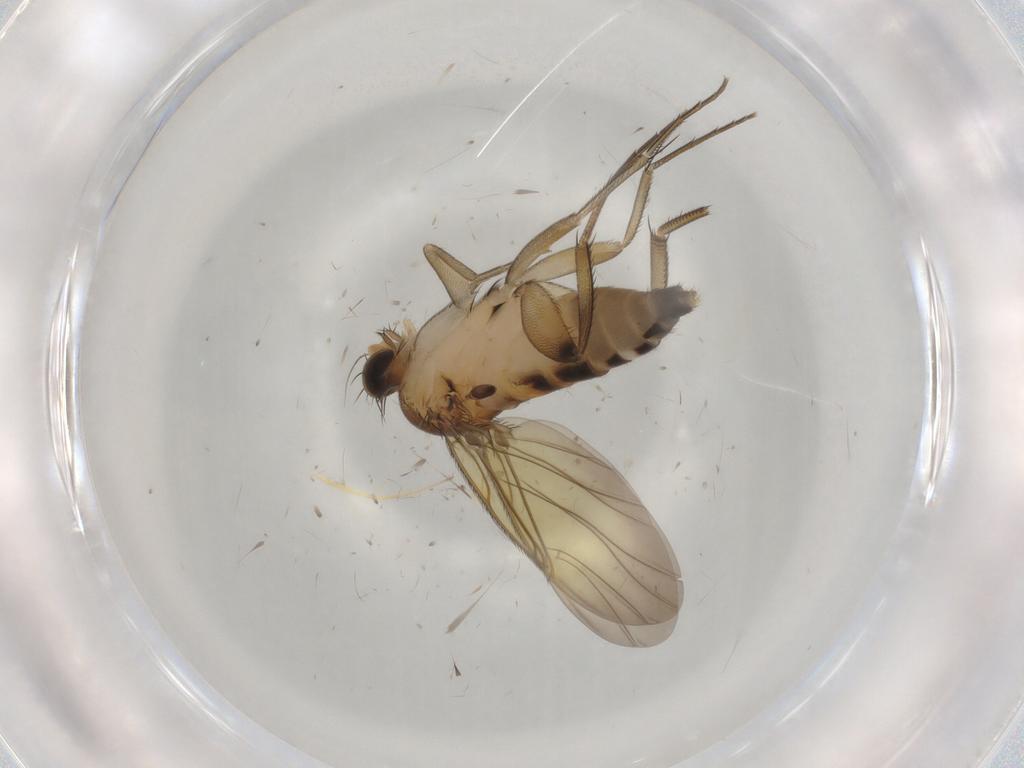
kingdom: Animalia
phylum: Arthropoda
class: Insecta
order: Diptera
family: Phoridae
